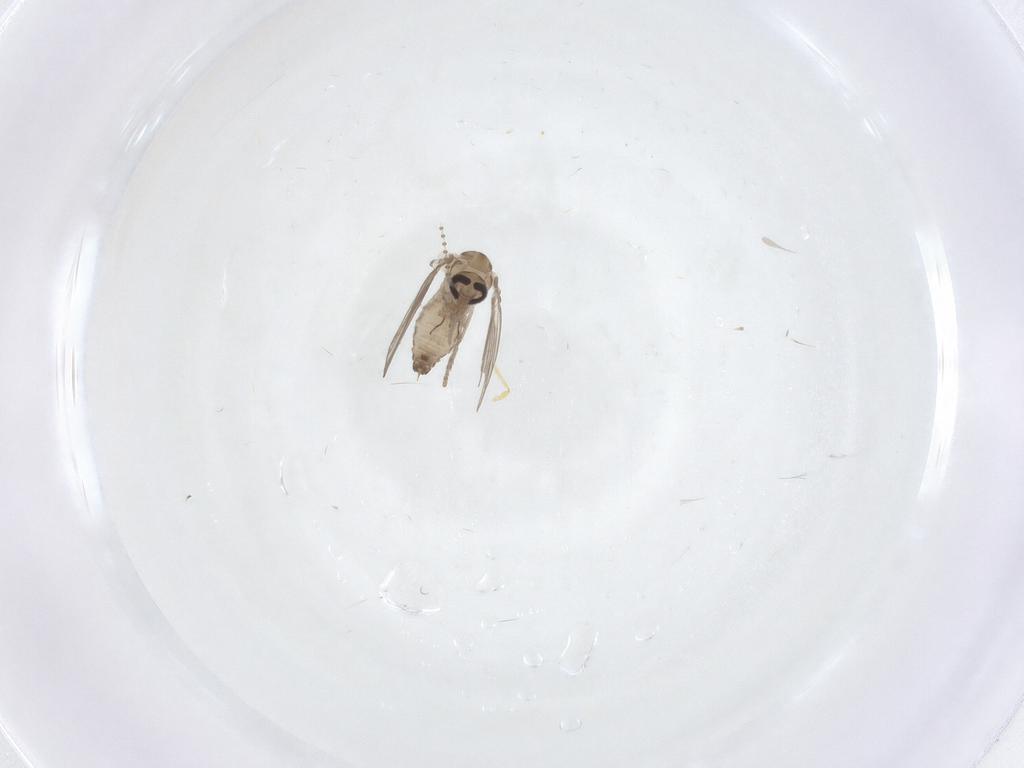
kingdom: Animalia
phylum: Arthropoda
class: Insecta
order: Diptera
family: Psychodidae
